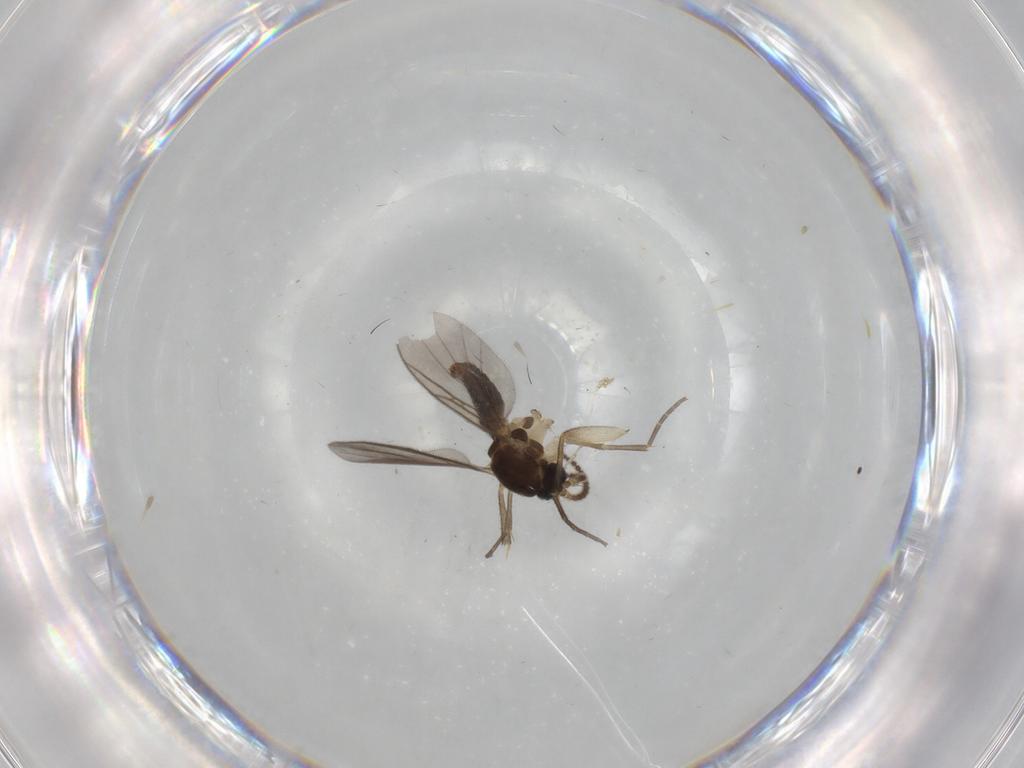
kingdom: Animalia
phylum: Arthropoda
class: Insecta
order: Diptera
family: Mycetophilidae
